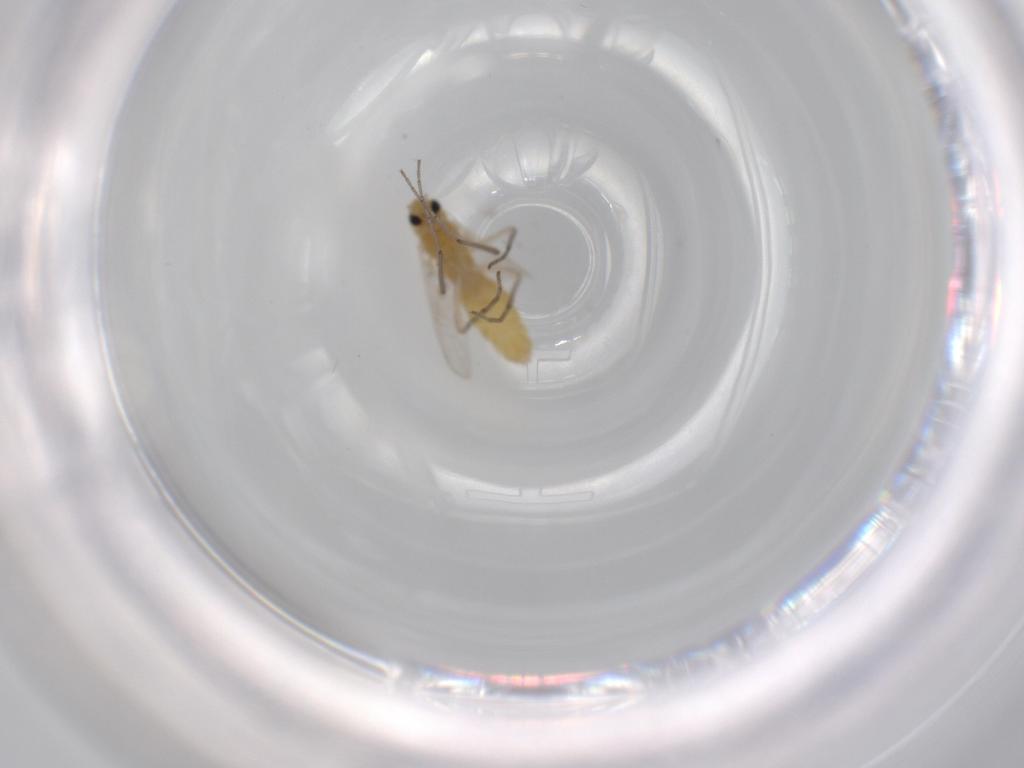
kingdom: Animalia
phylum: Arthropoda
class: Insecta
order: Diptera
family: Chironomidae
